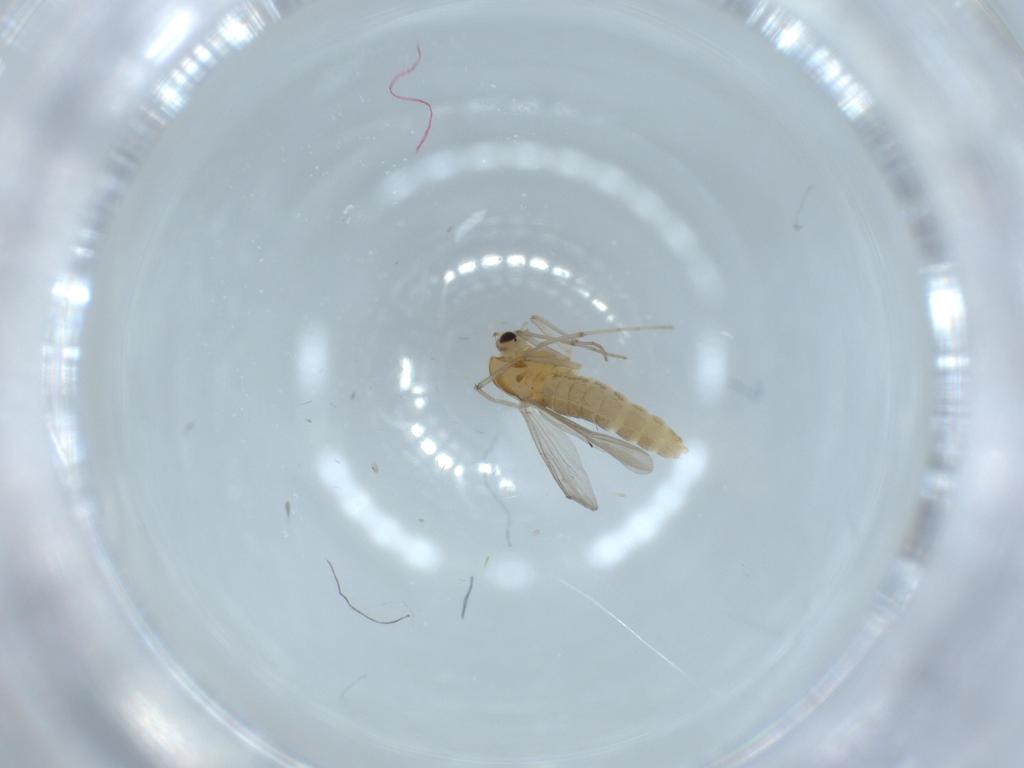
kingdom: Animalia
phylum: Arthropoda
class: Insecta
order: Diptera
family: Chironomidae
